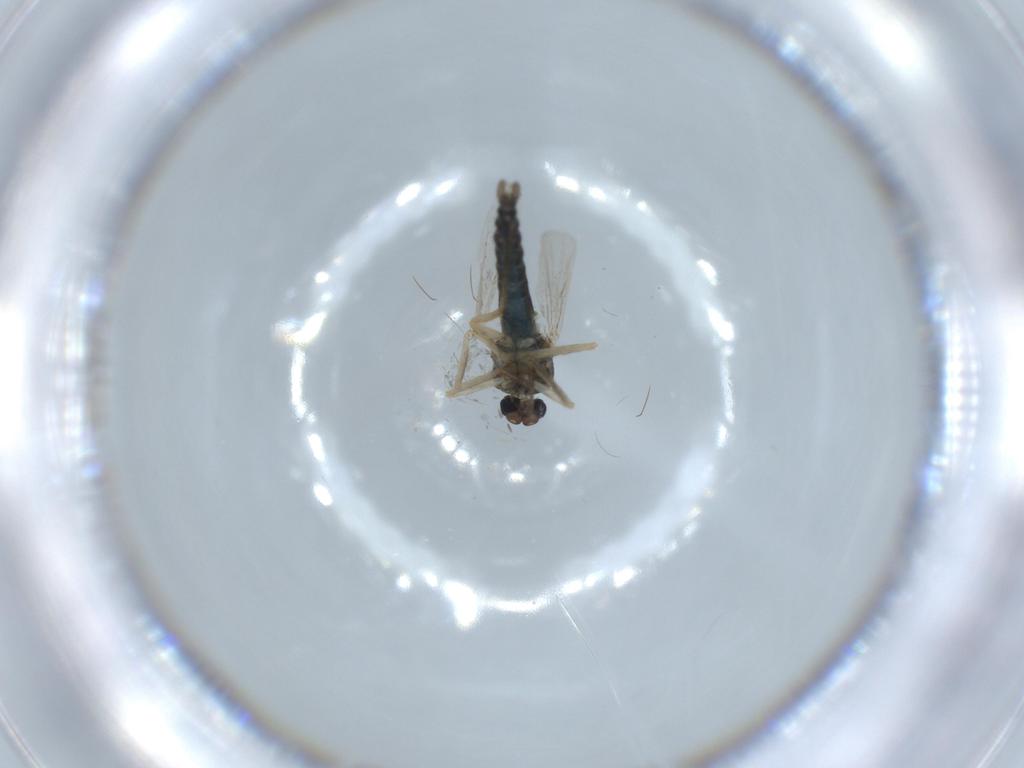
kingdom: Animalia
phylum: Arthropoda
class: Insecta
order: Diptera
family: Ceratopogonidae
